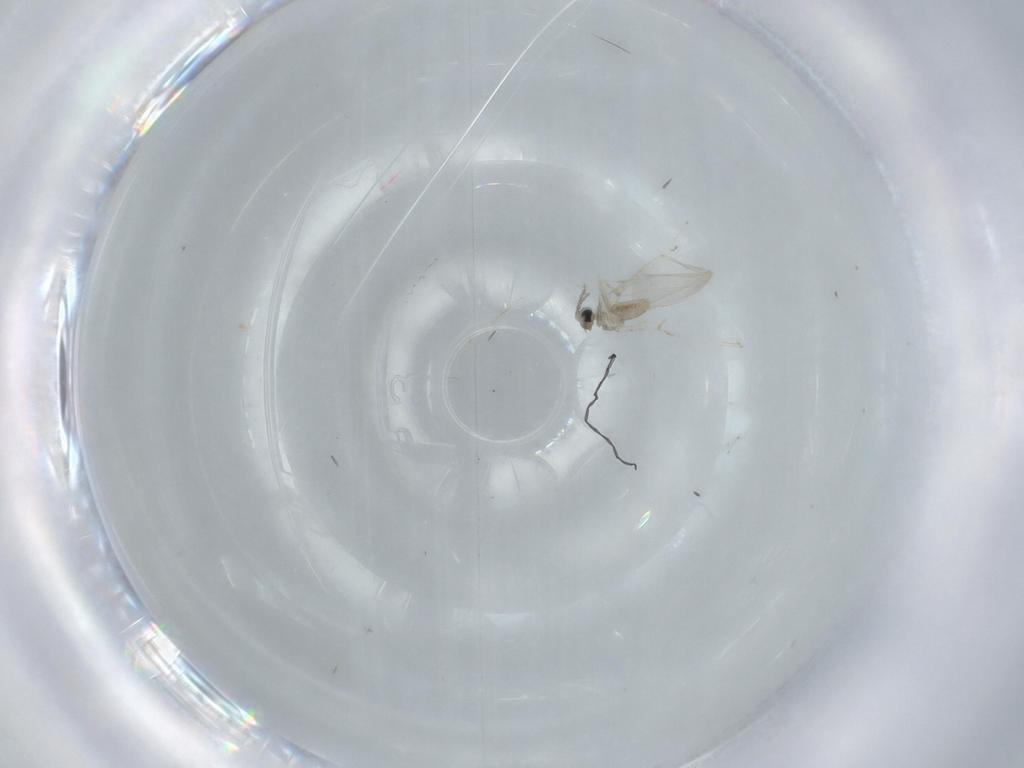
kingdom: Animalia
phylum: Arthropoda
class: Insecta
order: Diptera
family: Cecidomyiidae
